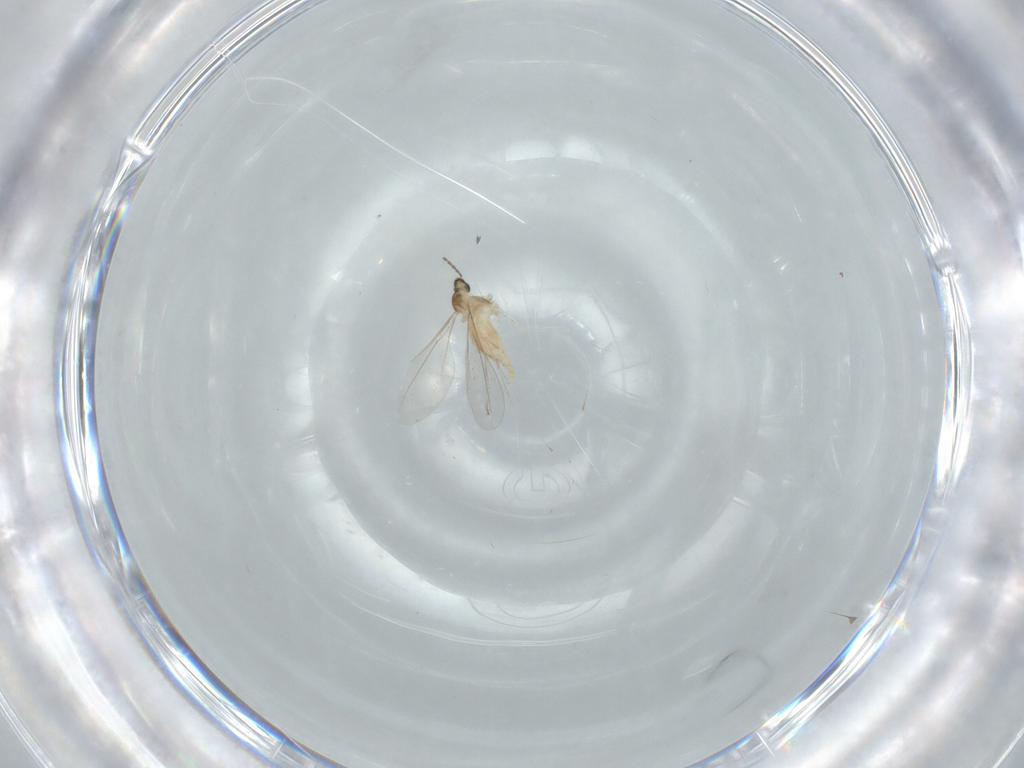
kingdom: Animalia
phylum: Arthropoda
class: Insecta
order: Diptera
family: Cecidomyiidae
